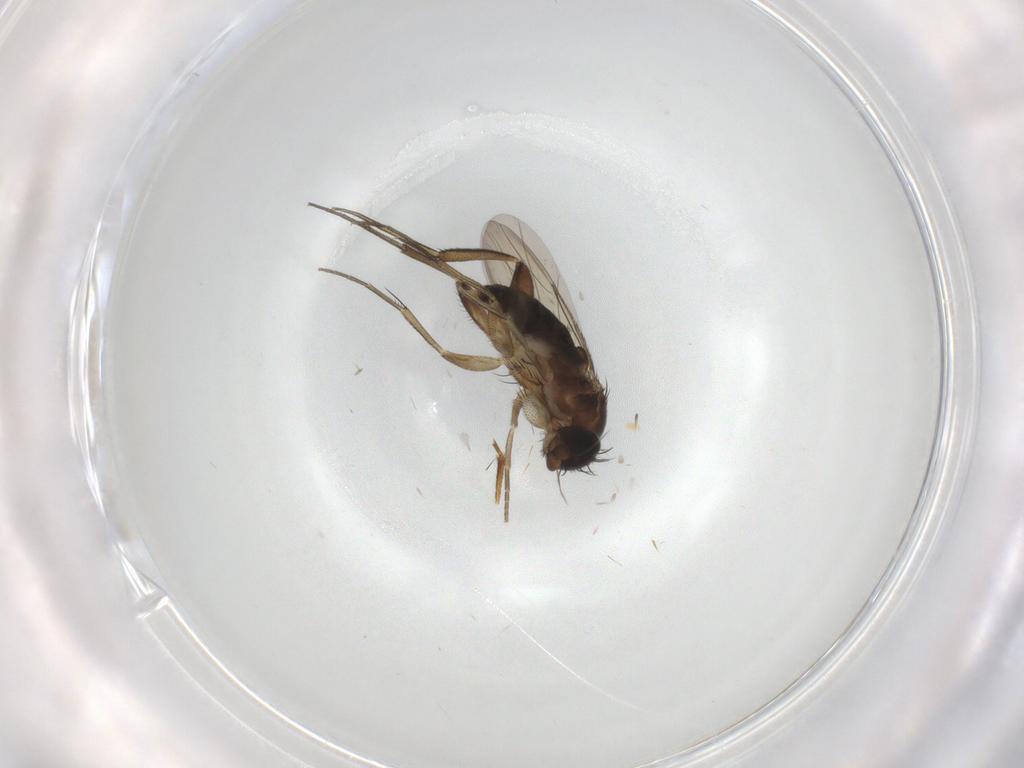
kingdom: Animalia
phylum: Arthropoda
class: Insecta
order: Diptera
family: Phoridae
